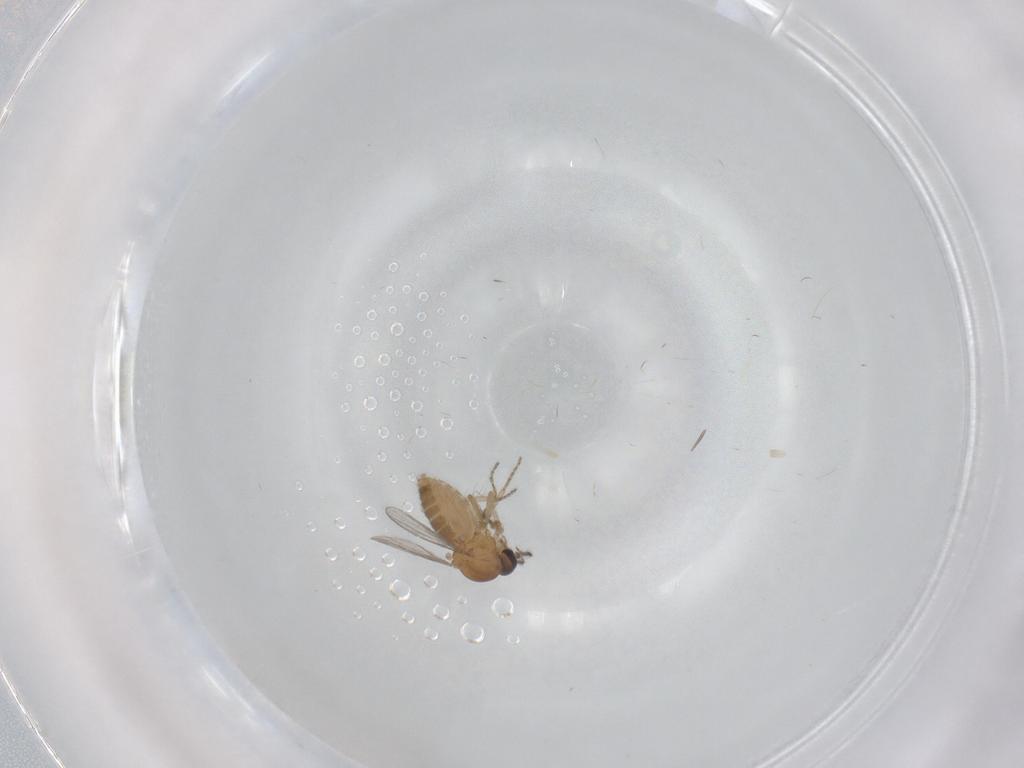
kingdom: Animalia
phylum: Arthropoda
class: Insecta
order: Diptera
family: Ceratopogonidae
